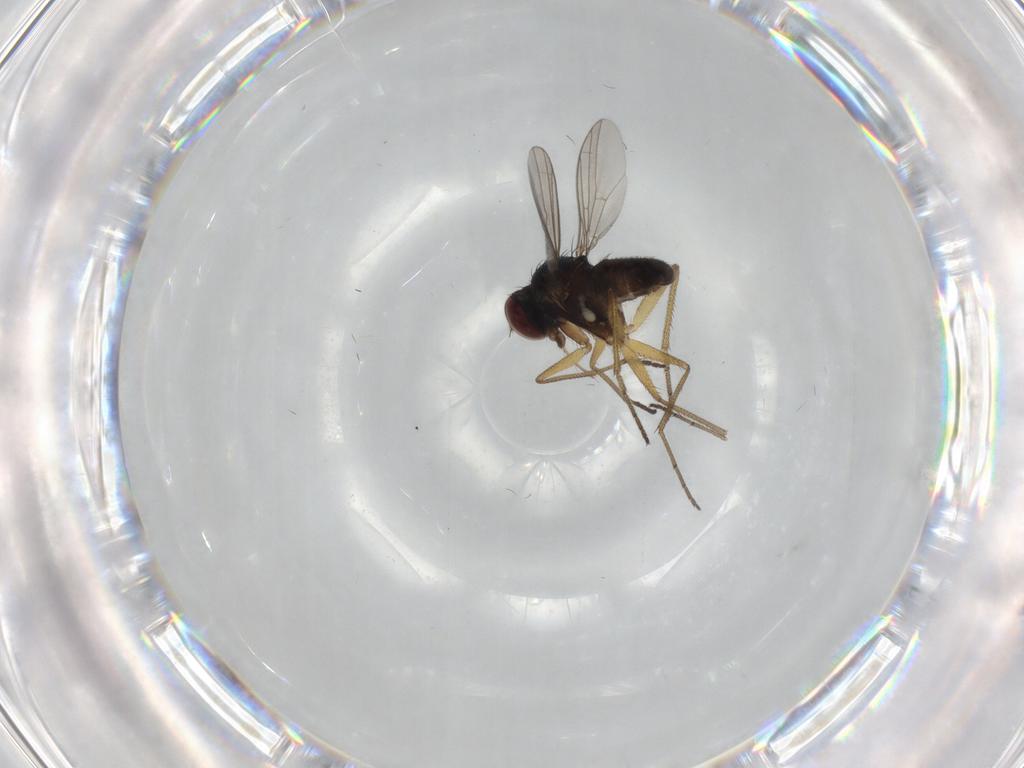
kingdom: Animalia
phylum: Arthropoda
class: Insecta
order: Diptera
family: Dolichopodidae
